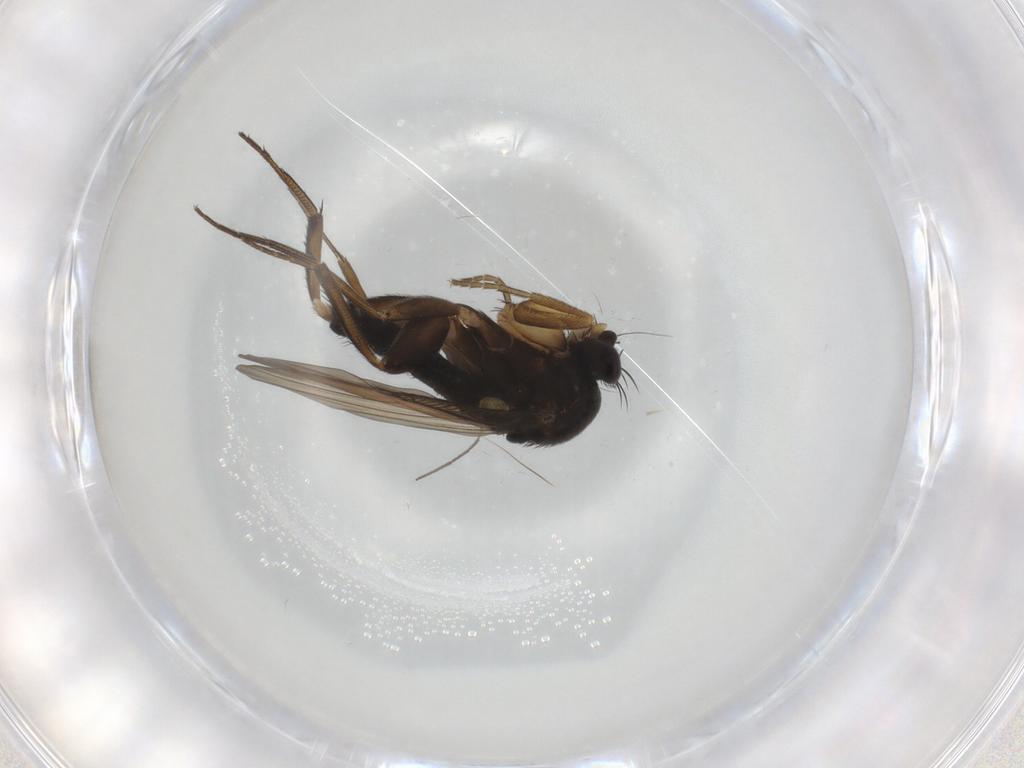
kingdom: Animalia
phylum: Arthropoda
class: Insecta
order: Diptera
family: Phoridae
